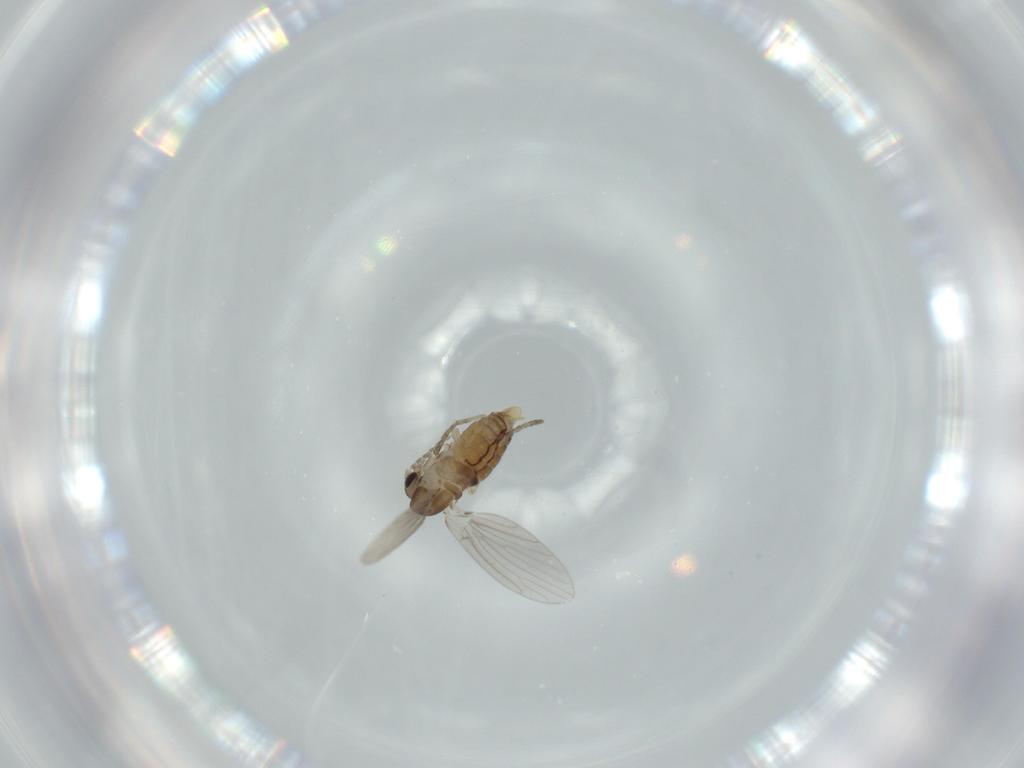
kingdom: Animalia
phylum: Arthropoda
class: Insecta
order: Diptera
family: Psychodidae
